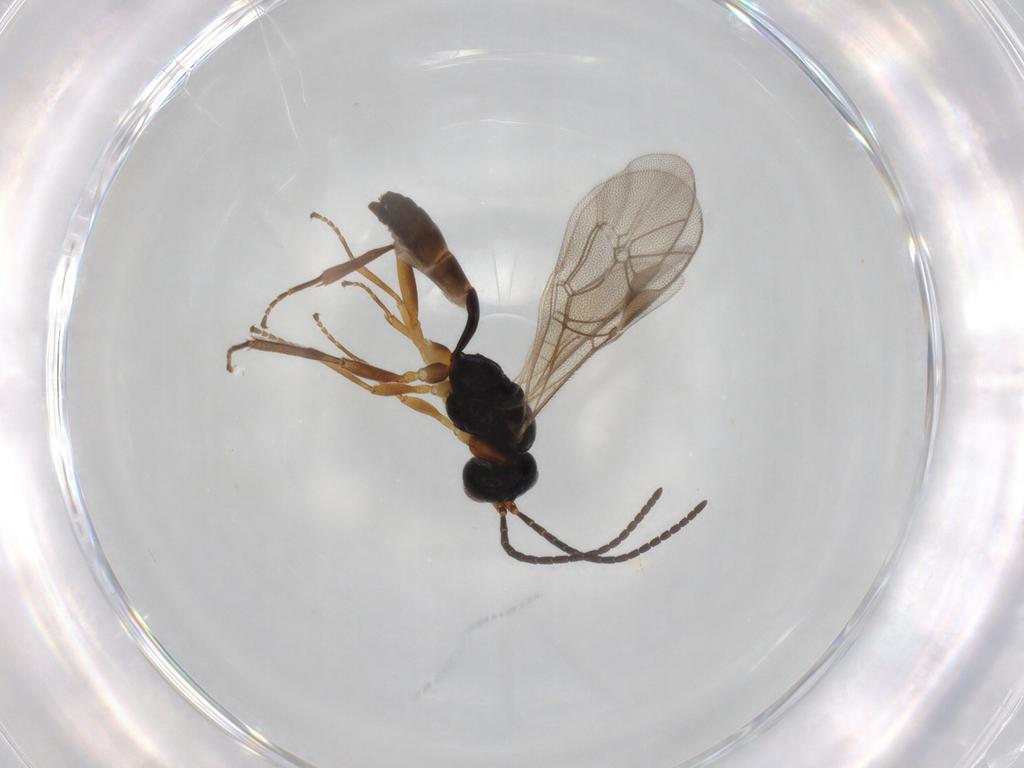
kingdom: Animalia
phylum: Arthropoda
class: Insecta
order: Hymenoptera
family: Ichneumonidae
